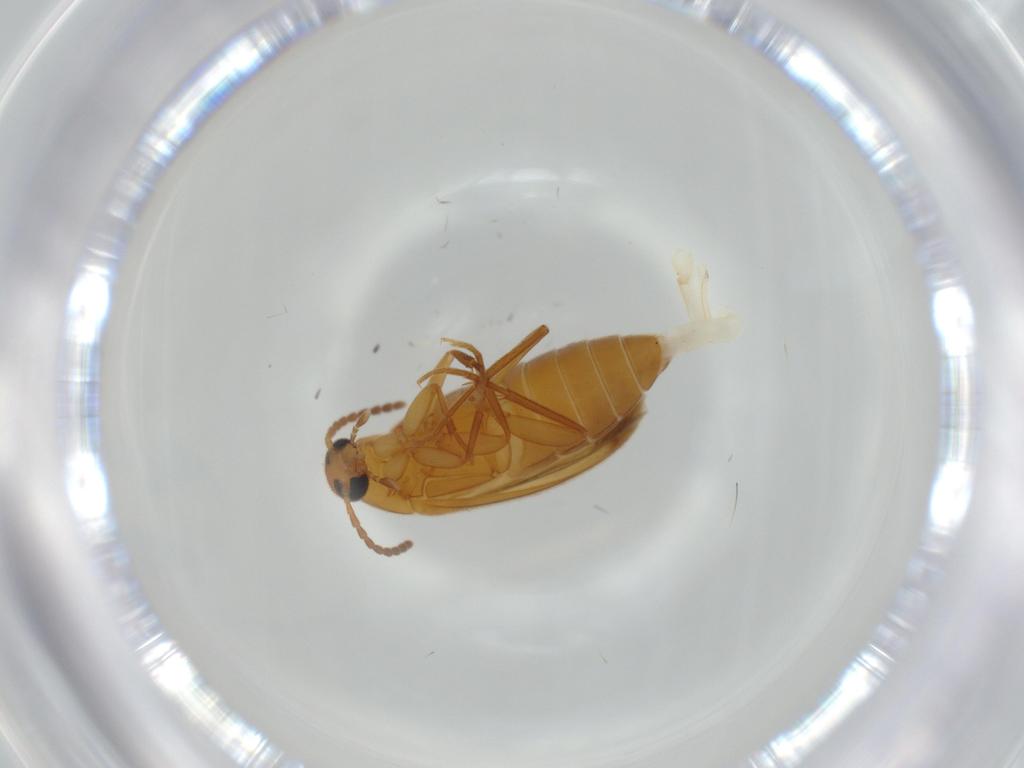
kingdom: Animalia
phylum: Arthropoda
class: Insecta
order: Coleoptera
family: Scraptiidae
